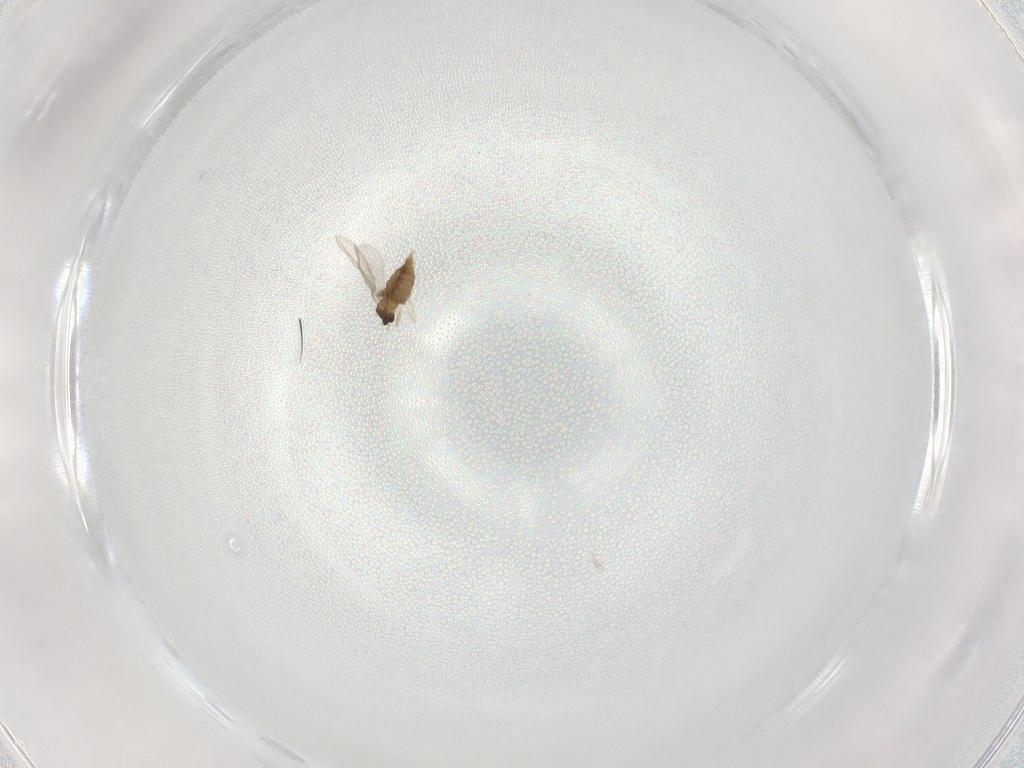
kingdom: Animalia
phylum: Arthropoda
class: Insecta
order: Diptera
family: Cecidomyiidae
